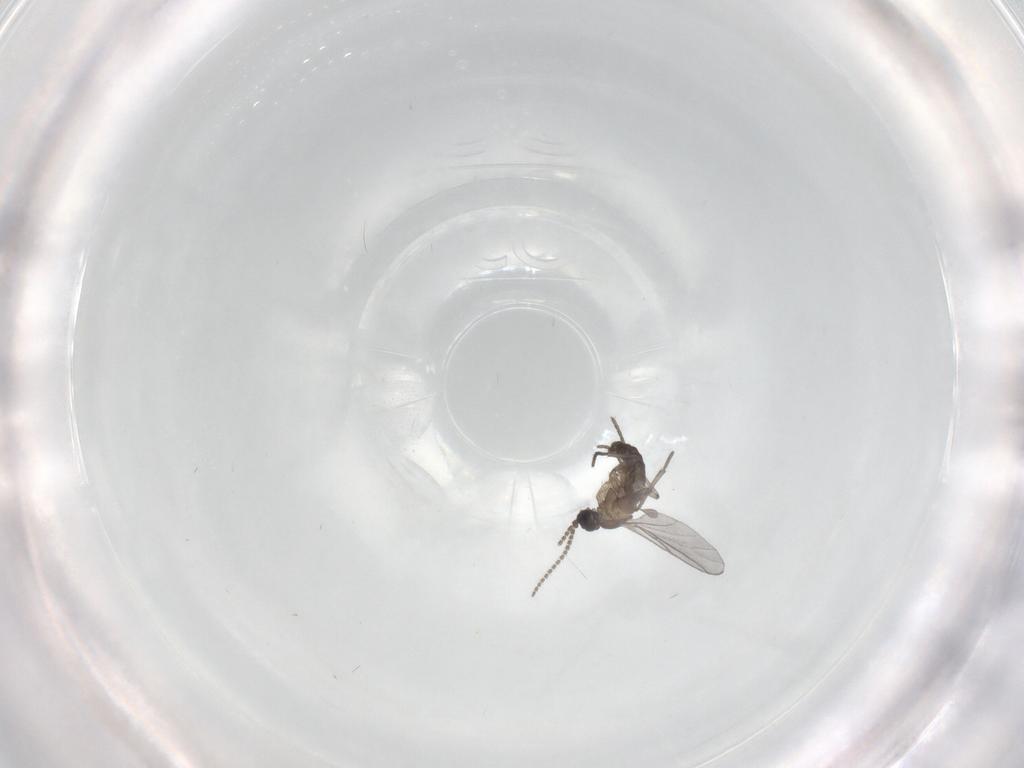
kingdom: Animalia
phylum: Arthropoda
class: Insecta
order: Diptera
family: Sciaridae
